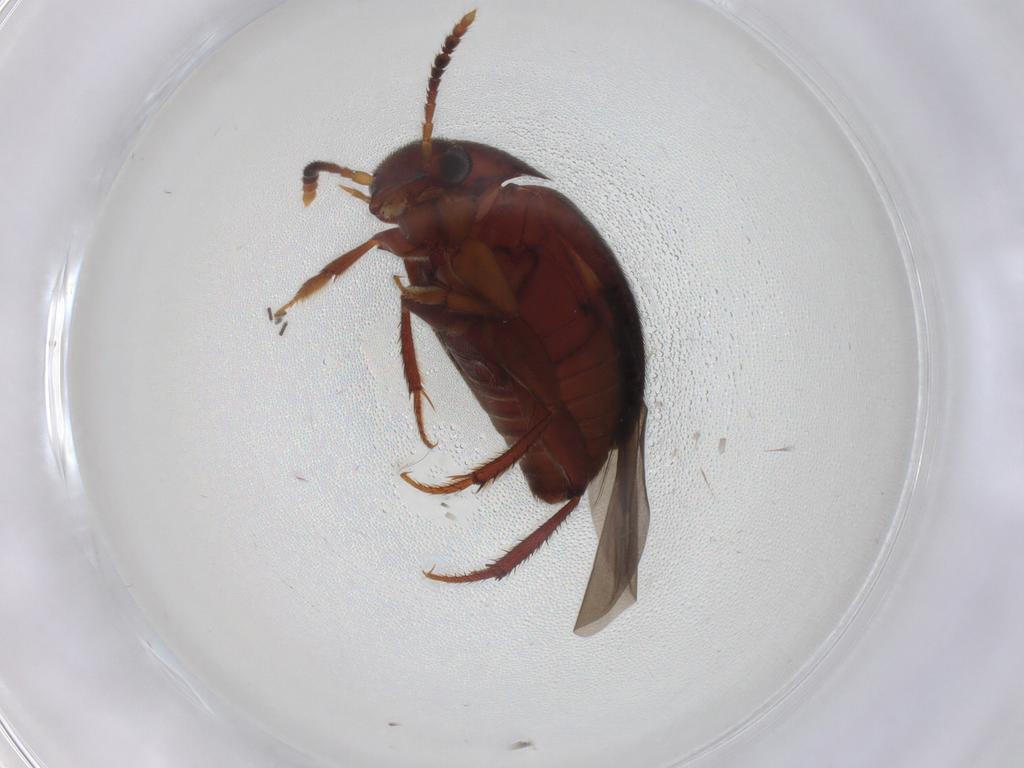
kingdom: Animalia
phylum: Arthropoda
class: Insecta
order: Coleoptera
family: Leiodidae
